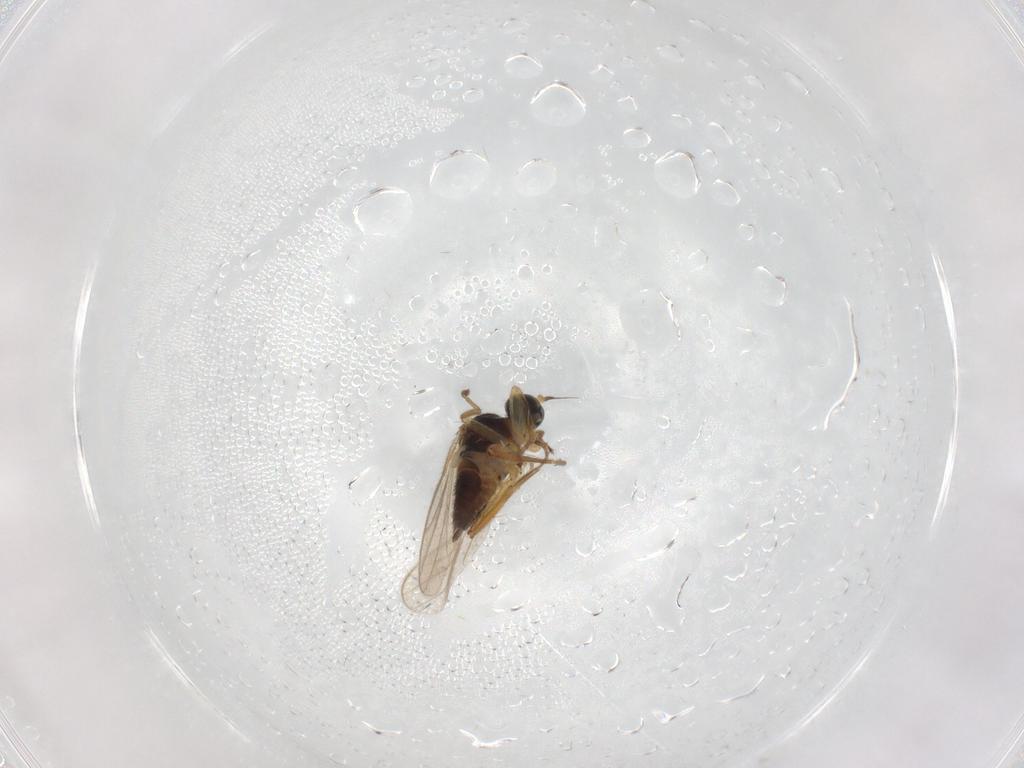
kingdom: Animalia
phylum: Arthropoda
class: Insecta
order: Diptera
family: Hybotidae
